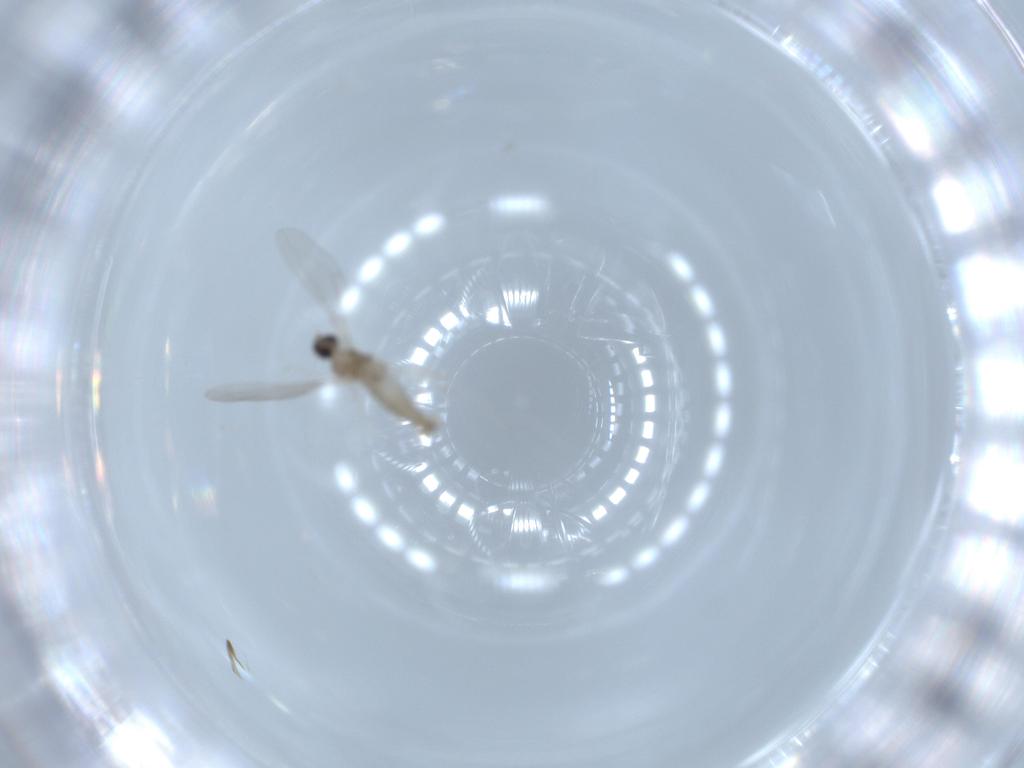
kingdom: Animalia
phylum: Arthropoda
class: Insecta
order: Diptera
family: Cecidomyiidae
